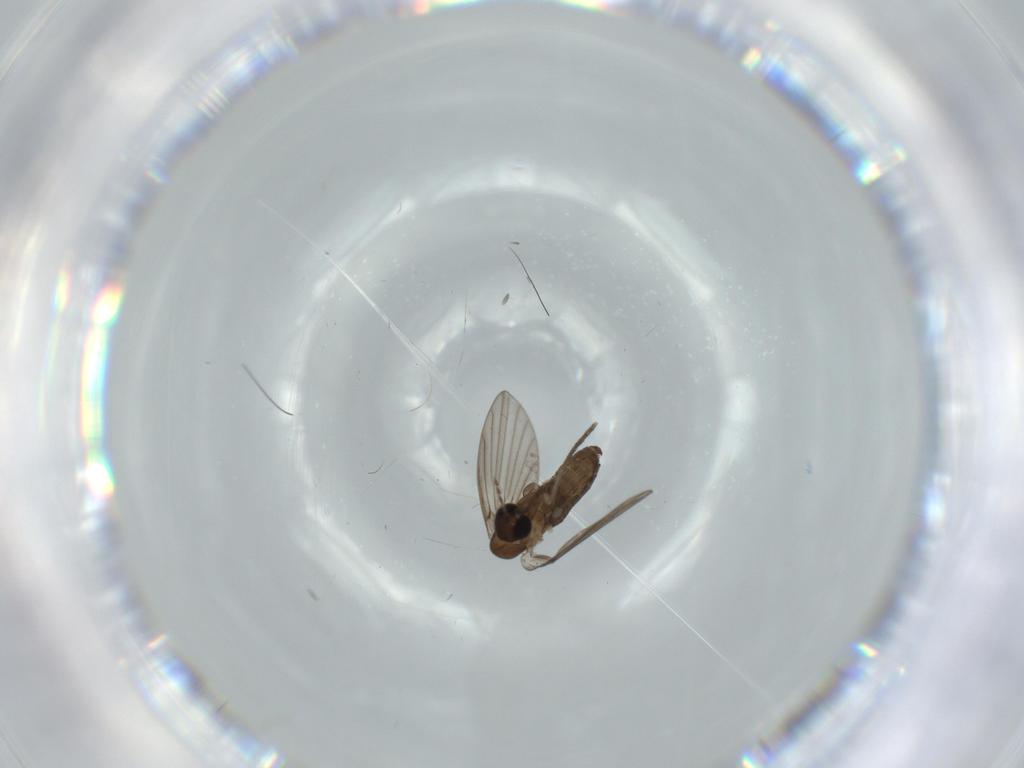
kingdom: Animalia
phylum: Arthropoda
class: Insecta
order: Diptera
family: Psychodidae
